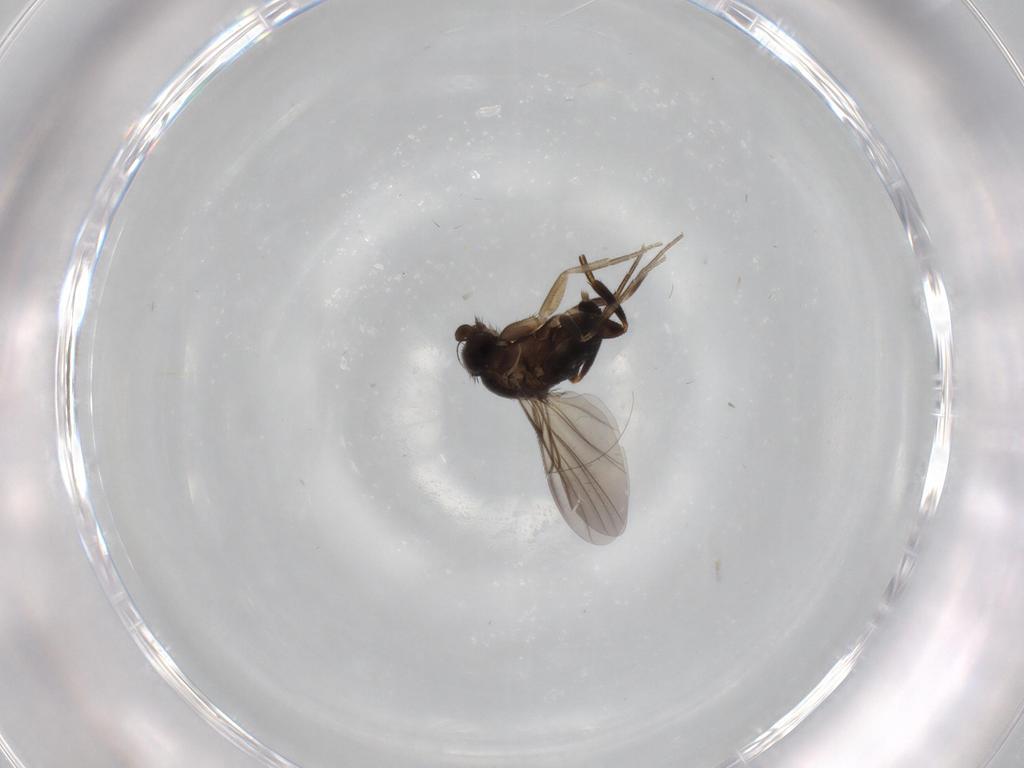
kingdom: Animalia
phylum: Arthropoda
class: Insecta
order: Diptera
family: Phoridae
